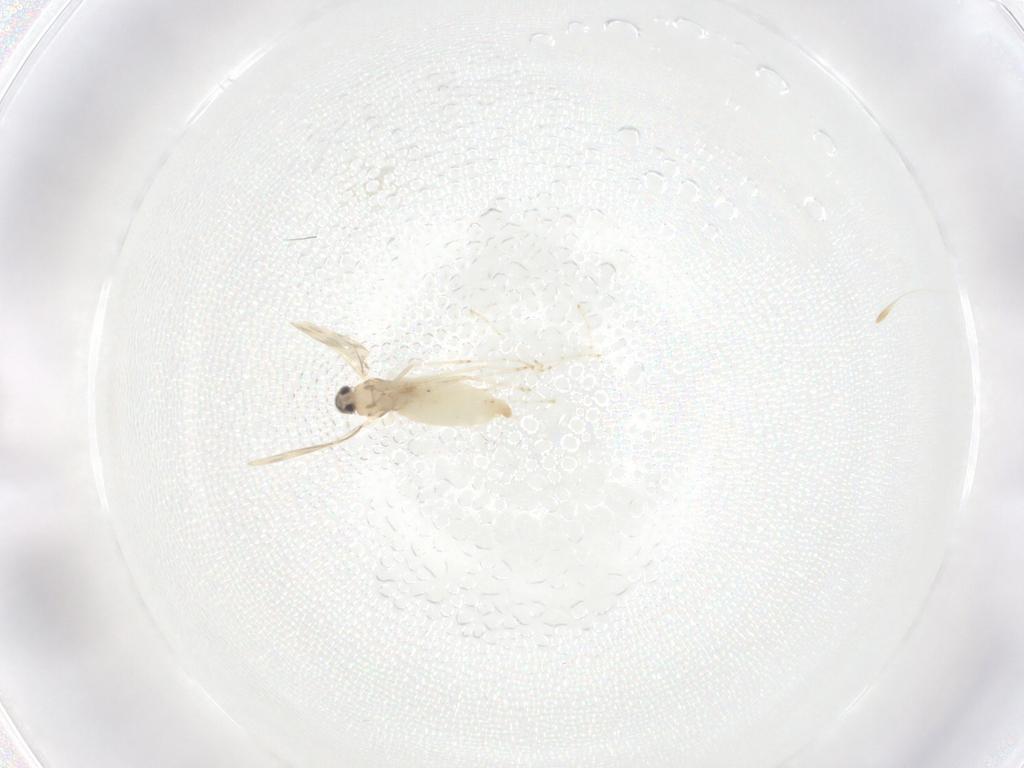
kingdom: Animalia
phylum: Arthropoda
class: Insecta
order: Diptera
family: Cecidomyiidae
